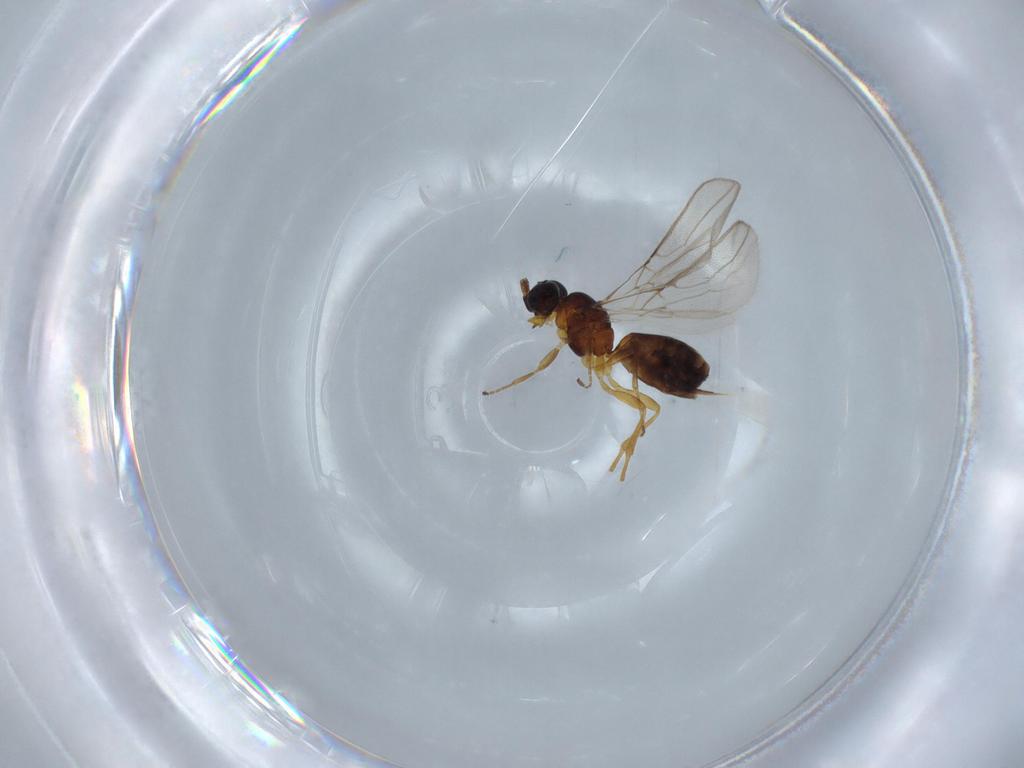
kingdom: Animalia
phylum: Arthropoda
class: Insecta
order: Hymenoptera
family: Braconidae
